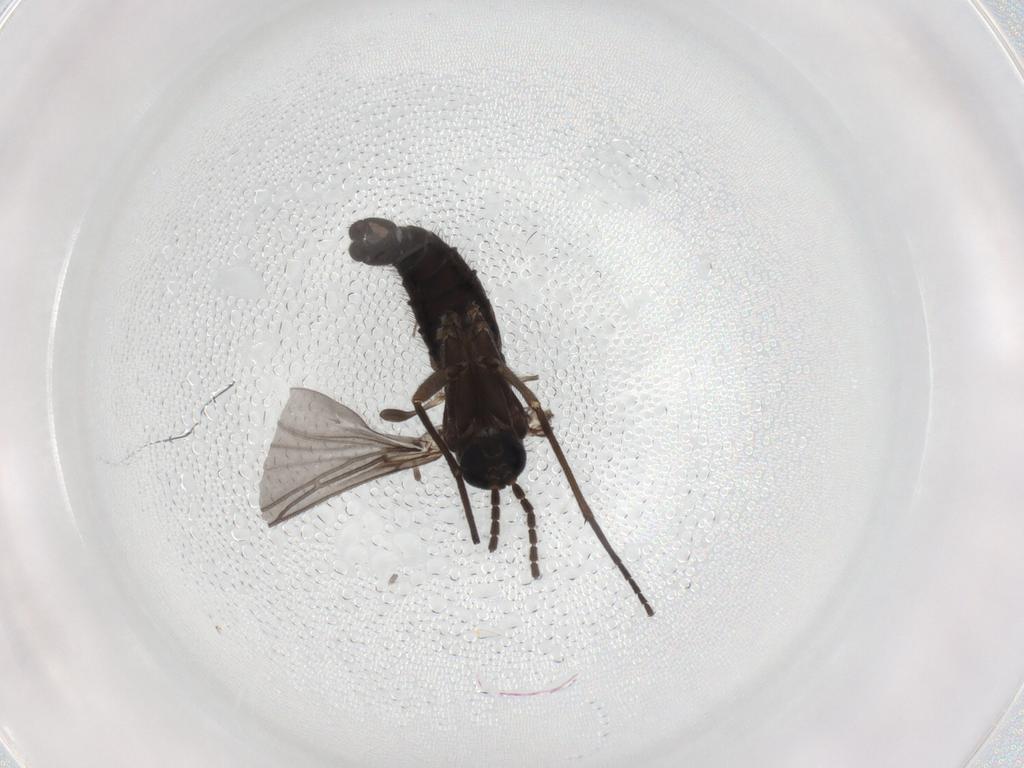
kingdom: Animalia
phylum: Arthropoda
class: Insecta
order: Diptera
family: Sciaridae
